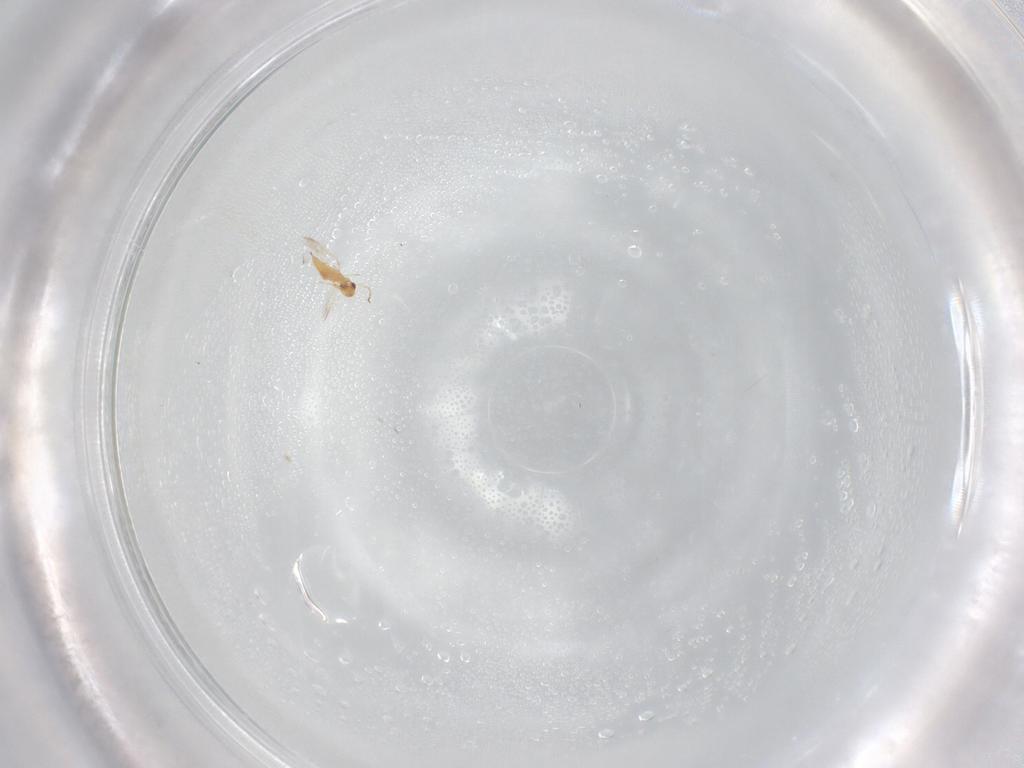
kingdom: Animalia
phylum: Arthropoda
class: Insecta
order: Hymenoptera
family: Mymaridae
